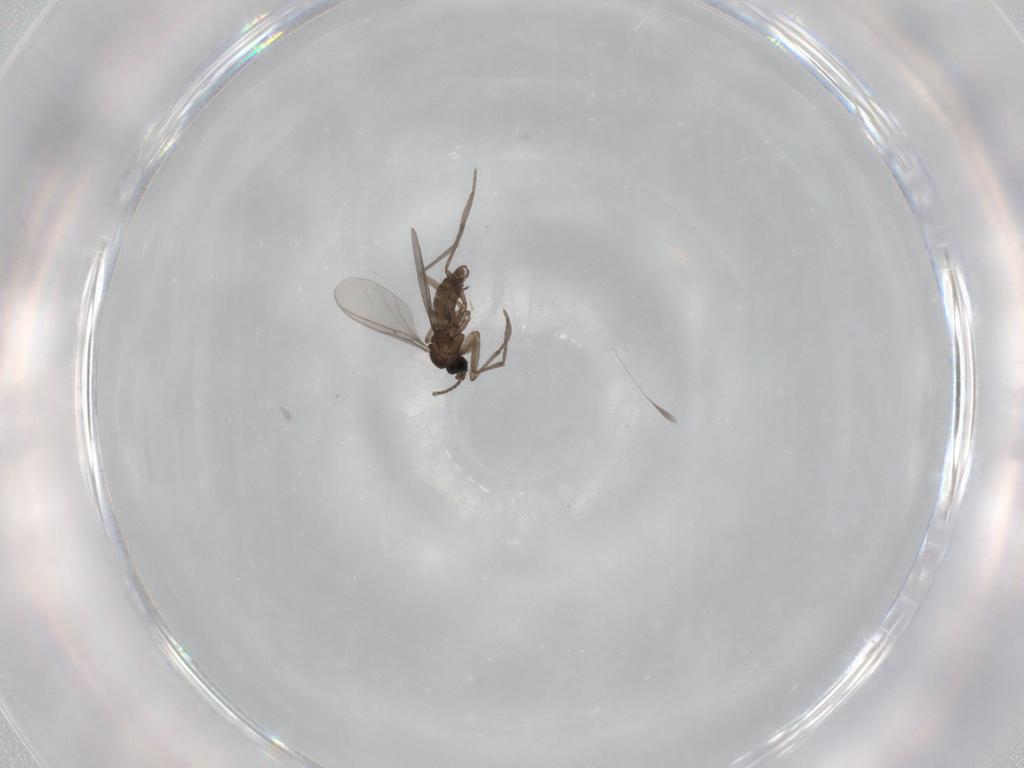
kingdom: Animalia
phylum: Arthropoda
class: Insecta
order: Diptera
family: Sciaridae
